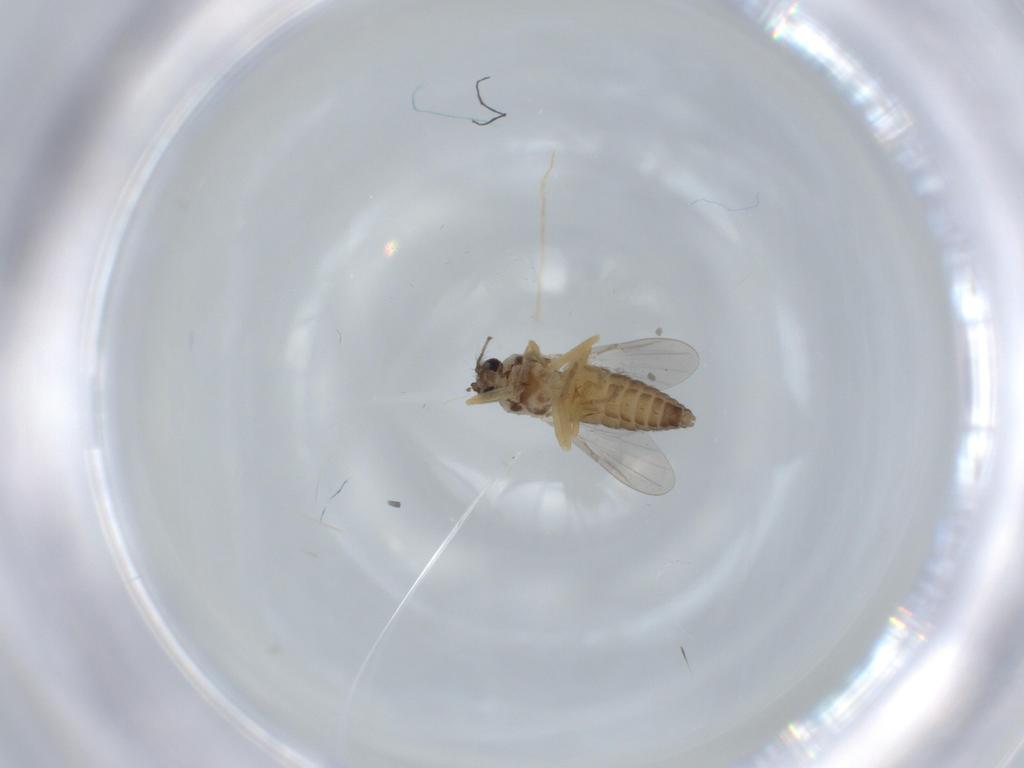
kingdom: Animalia
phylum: Arthropoda
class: Insecta
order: Diptera
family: Ceratopogonidae
